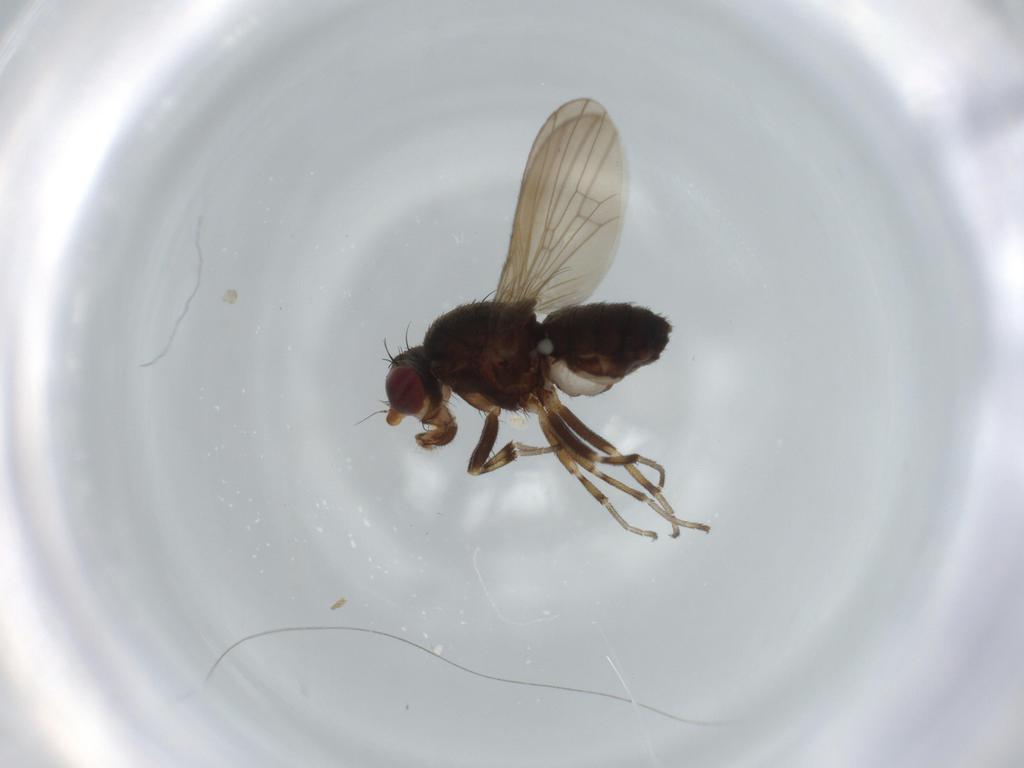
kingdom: Animalia
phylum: Arthropoda
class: Insecta
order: Diptera
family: Heleomyzidae
